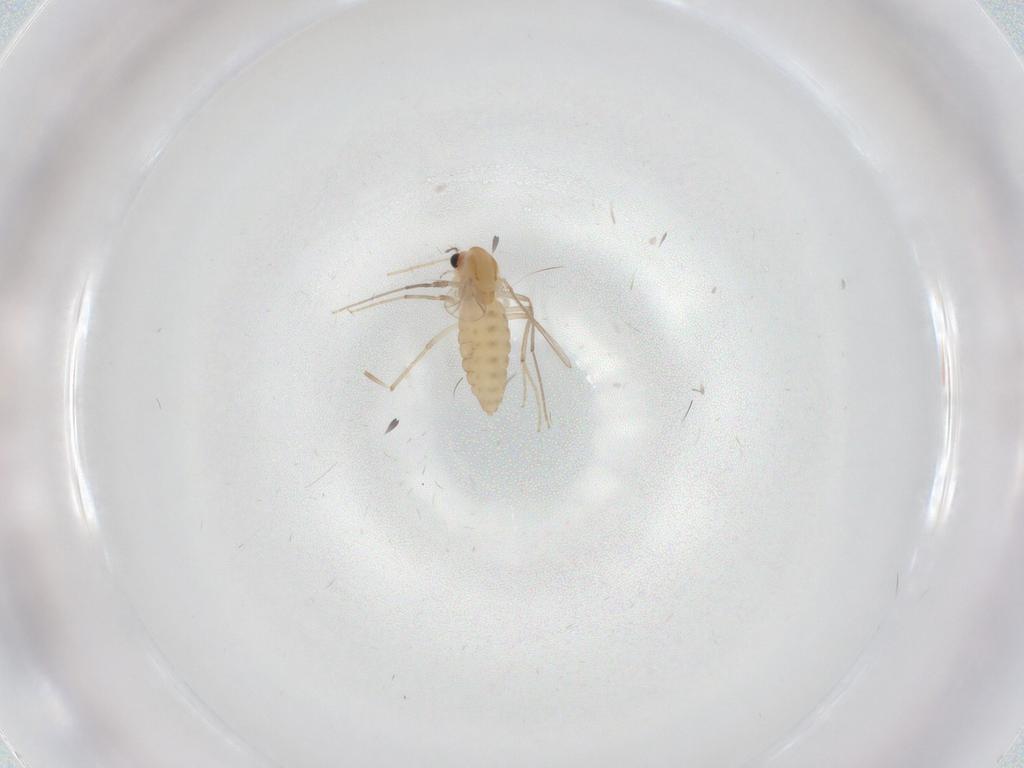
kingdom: Animalia
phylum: Arthropoda
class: Insecta
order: Diptera
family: Chironomidae
